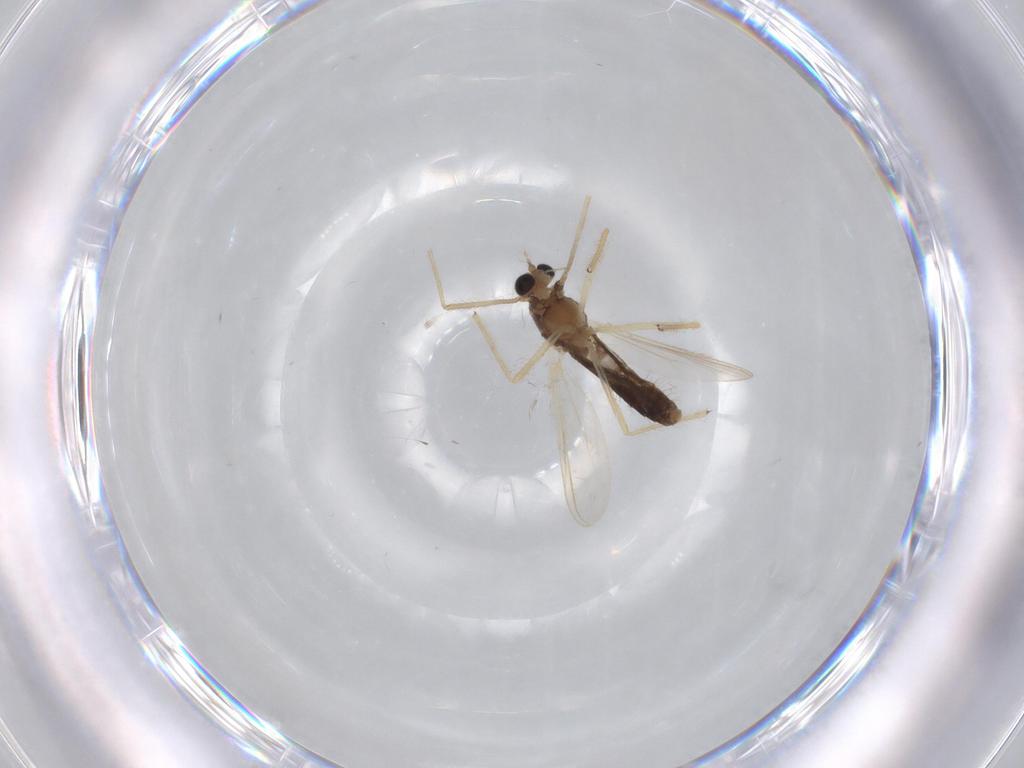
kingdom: Animalia
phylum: Arthropoda
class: Insecta
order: Diptera
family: Chironomidae
